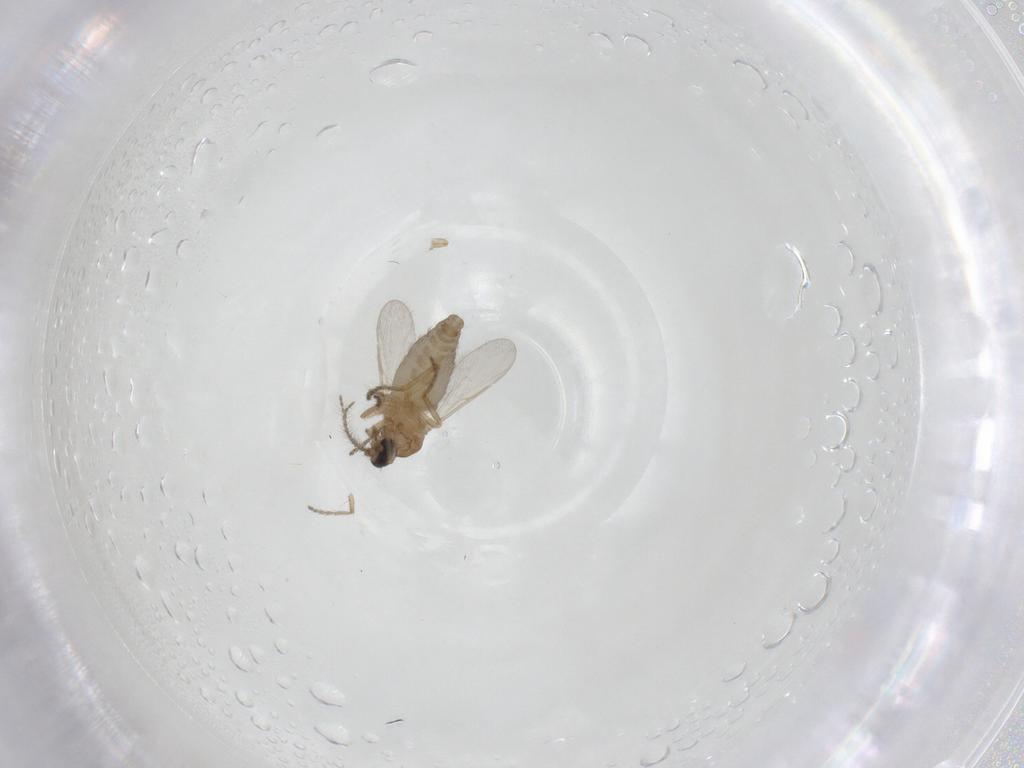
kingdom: Animalia
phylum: Arthropoda
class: Insecta
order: Diptera
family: Ceratopogonidae
